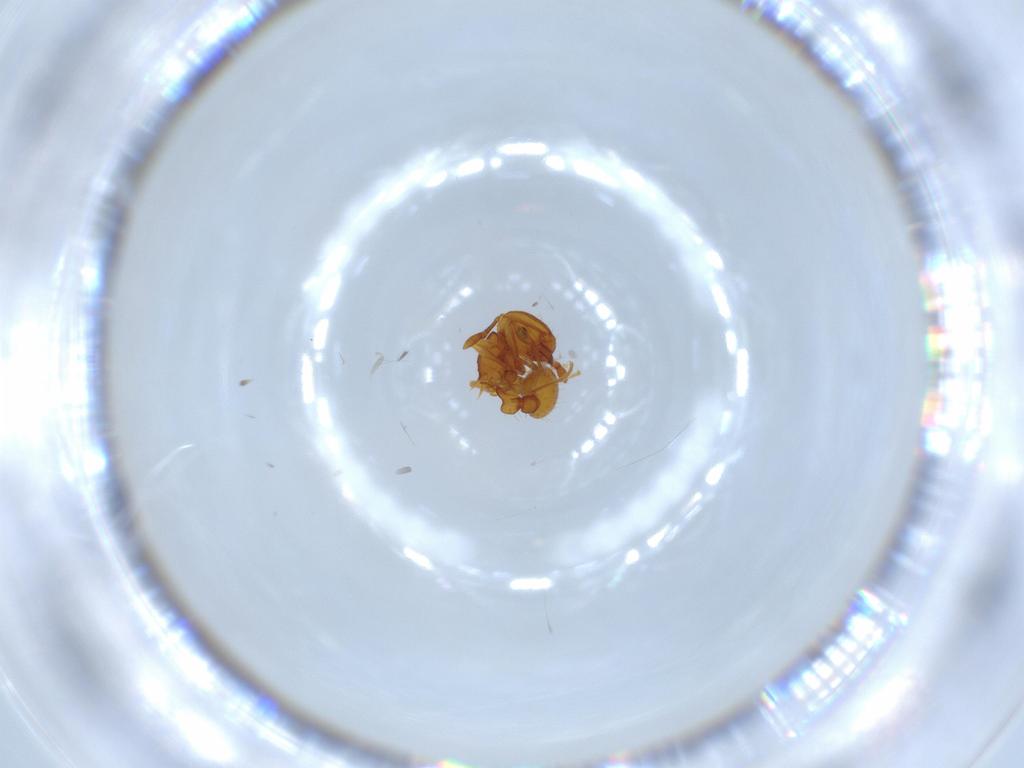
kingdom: Animalia
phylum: Arthropoda
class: Insecta
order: Hymenoptera
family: Formicidae
